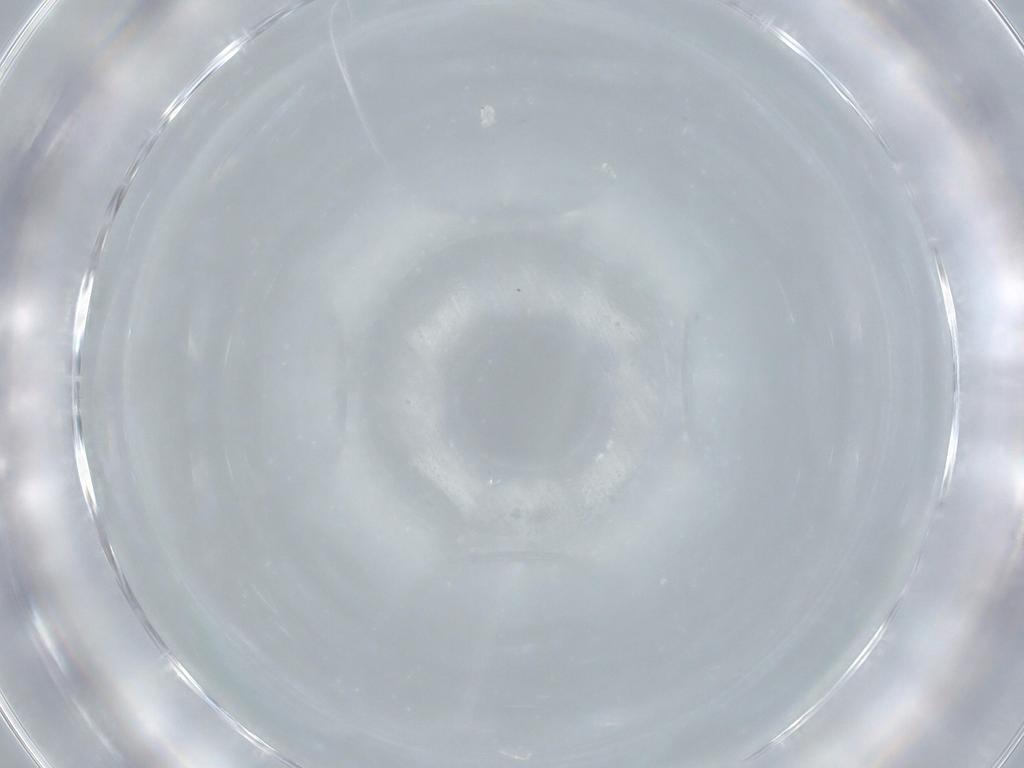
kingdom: Animalia
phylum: Arthropoda
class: Insecta
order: Diptera
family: Cecidomyiidae
